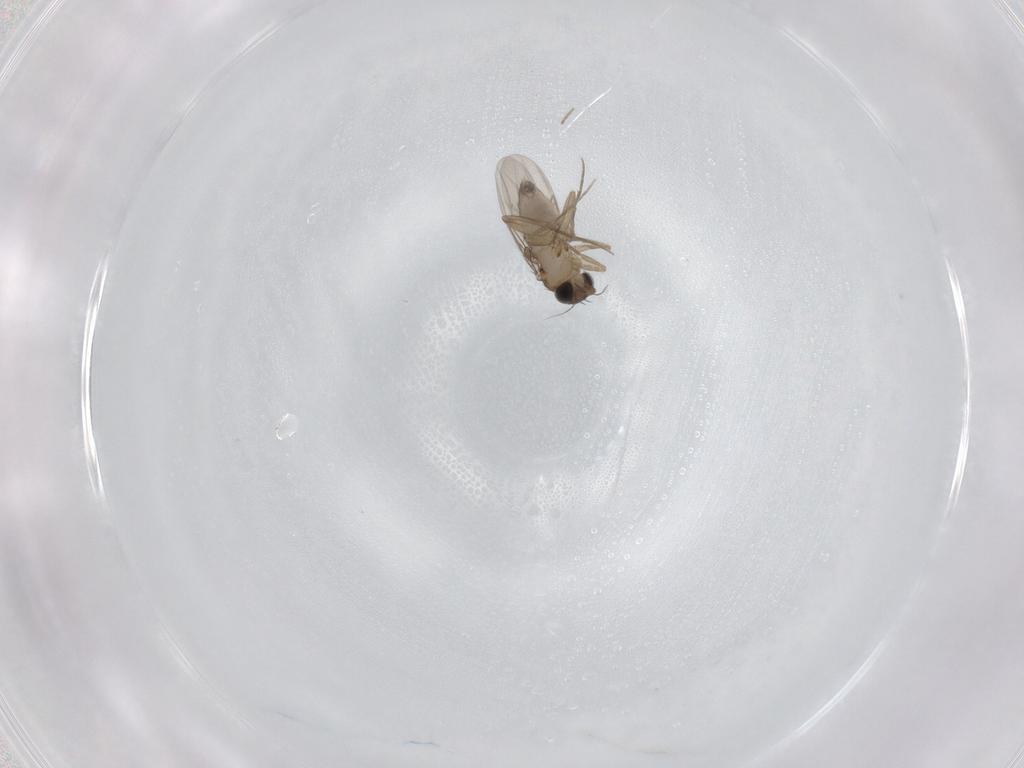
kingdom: Animalia
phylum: Arthropoda
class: Insecta
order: Diptera
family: Phoridae
